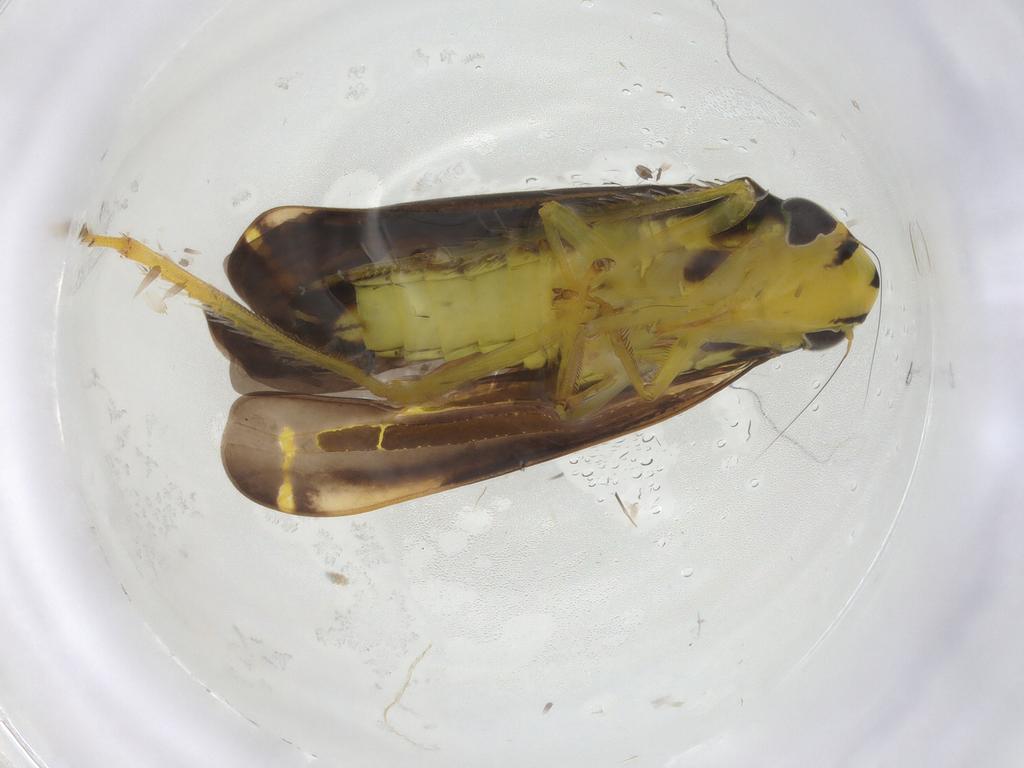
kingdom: Animalia
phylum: Arthropoda
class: Insecta
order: Hemiptera
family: Cicadellidae
